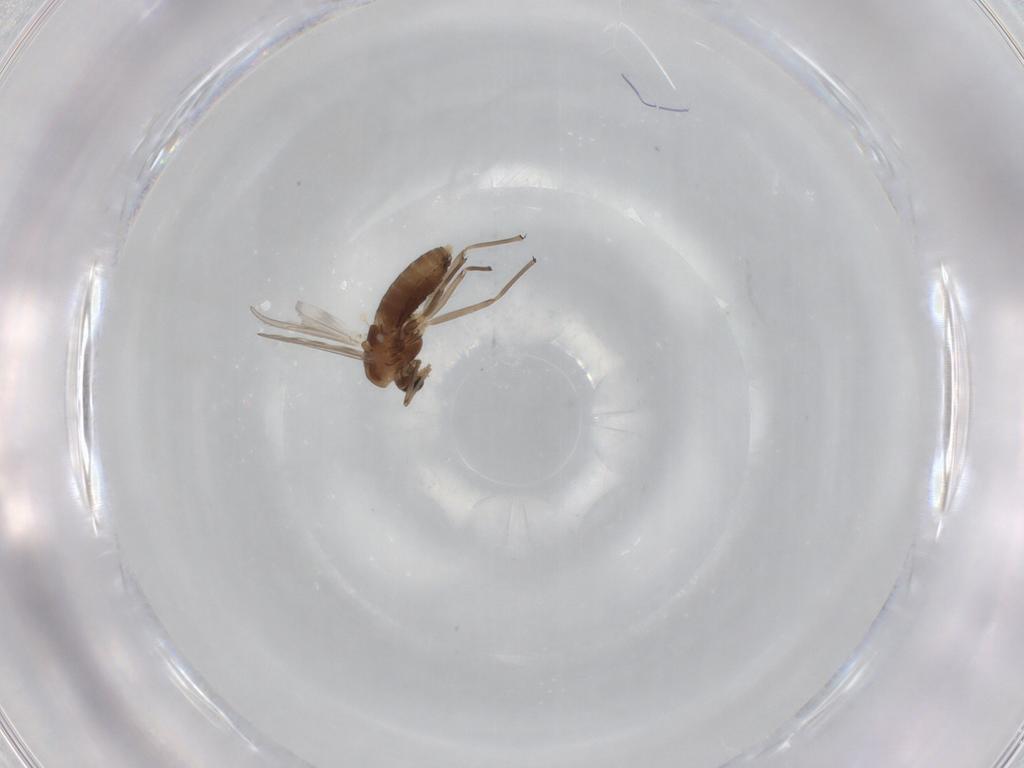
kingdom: Animalia
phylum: Arthropoda
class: Insecta
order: Diptera
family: Chironomidae
